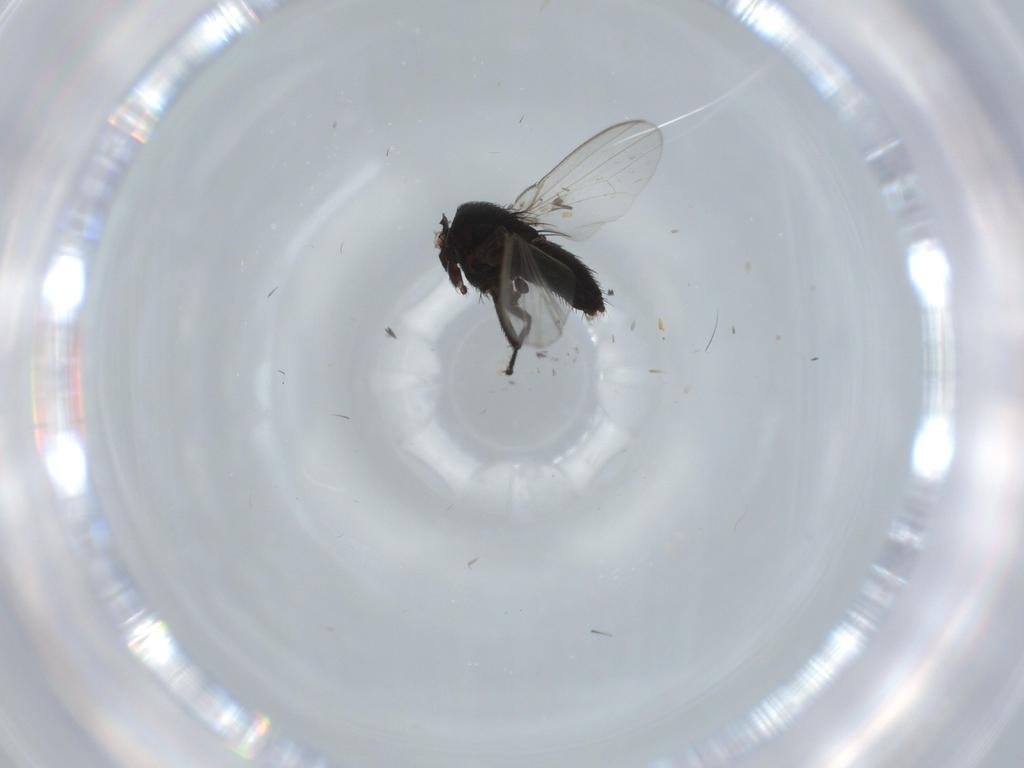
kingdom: Animalia
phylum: Arthropoda
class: Insecta
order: Diptera
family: Milichiidae
